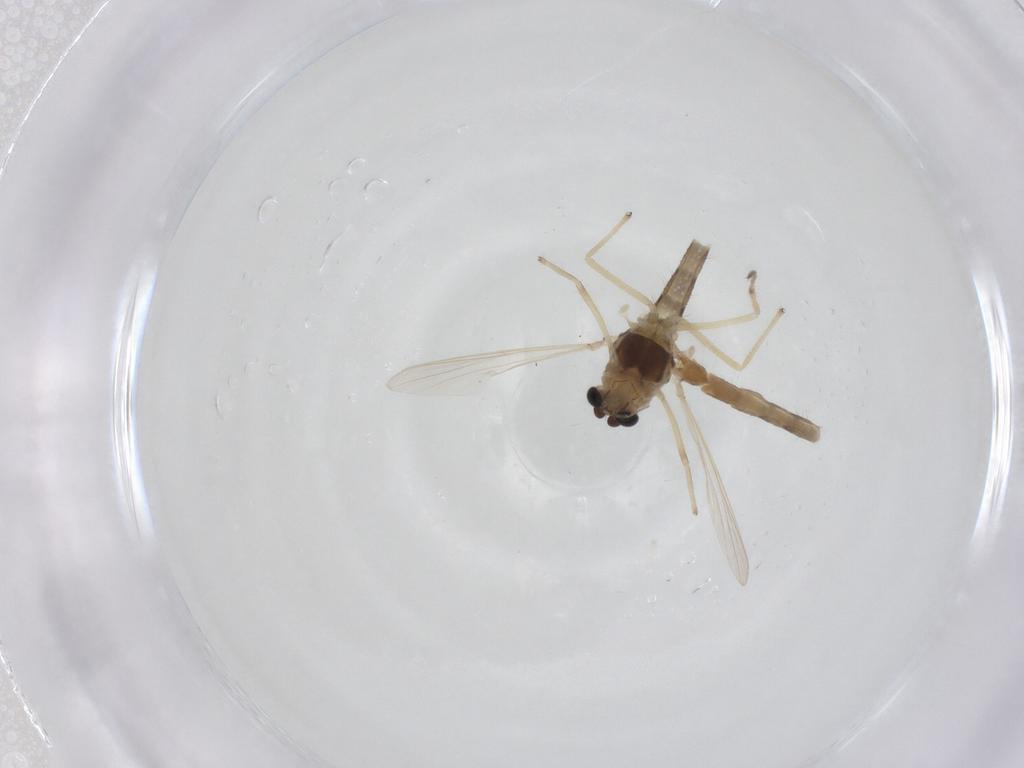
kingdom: Animalia
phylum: Arthropoda
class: Insecta
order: Diptera
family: Chironomidae
